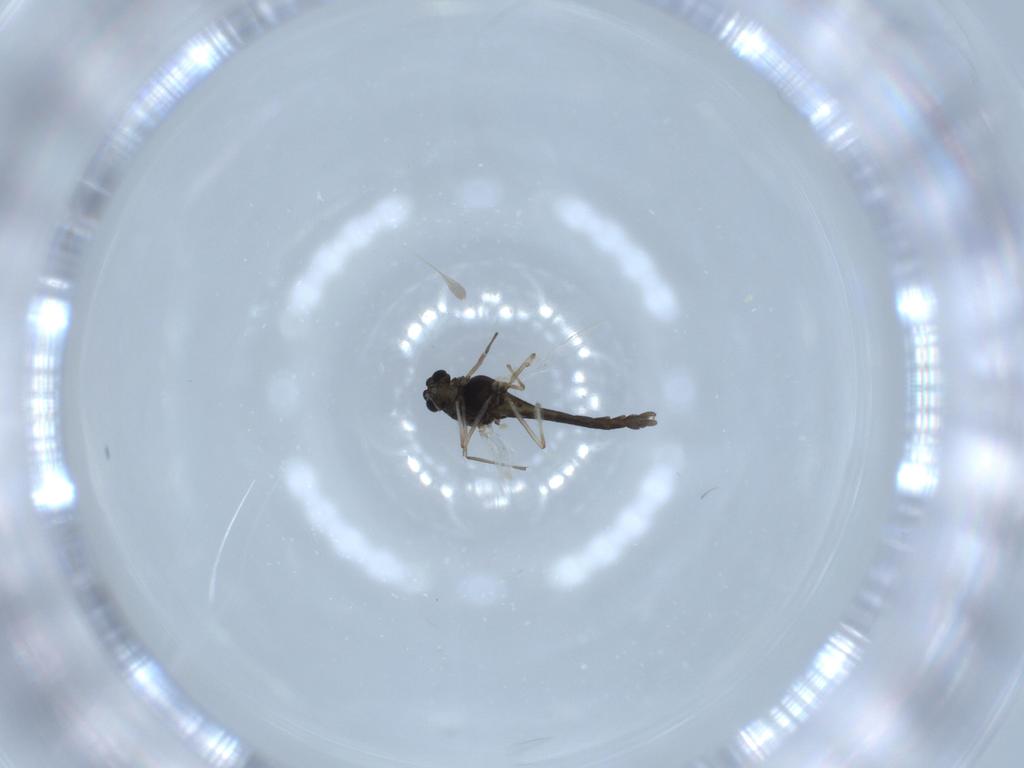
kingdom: Animalia
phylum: Arthropoda
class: Insecta
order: Diptera
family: Chironomidae
